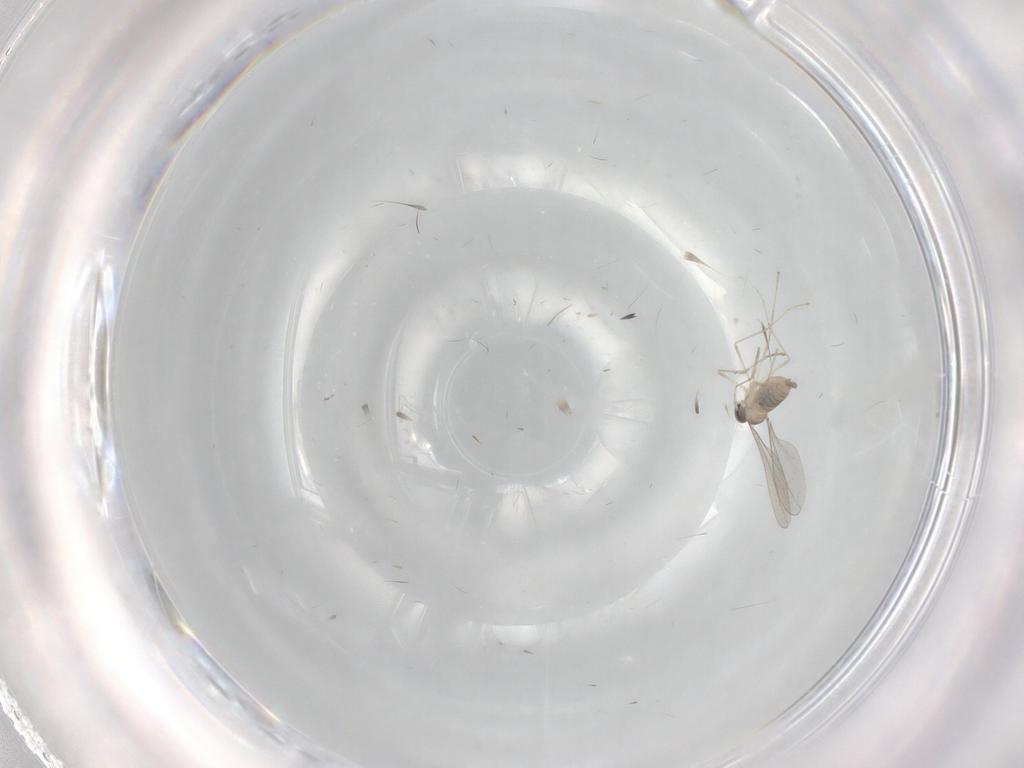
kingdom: Animalia
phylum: Arthropoda
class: Insecta
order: Diptera
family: Cecidomyiidae
